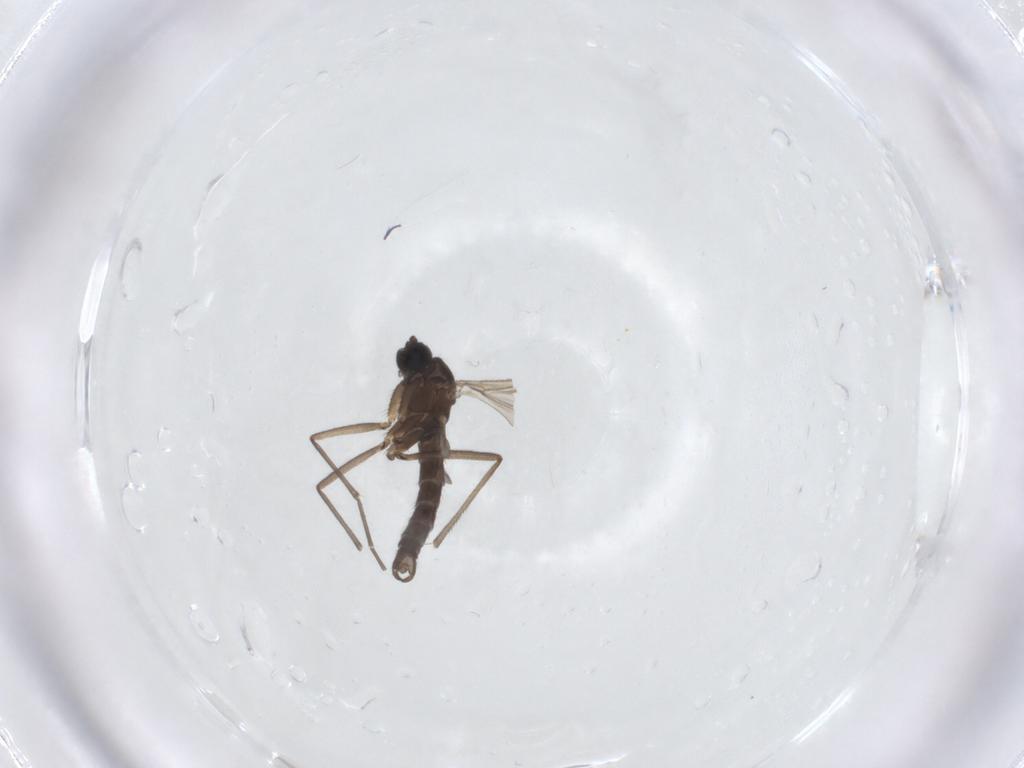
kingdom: Animalia
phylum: Arthropoda
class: Insecta
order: Diptera
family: Sciaridae
